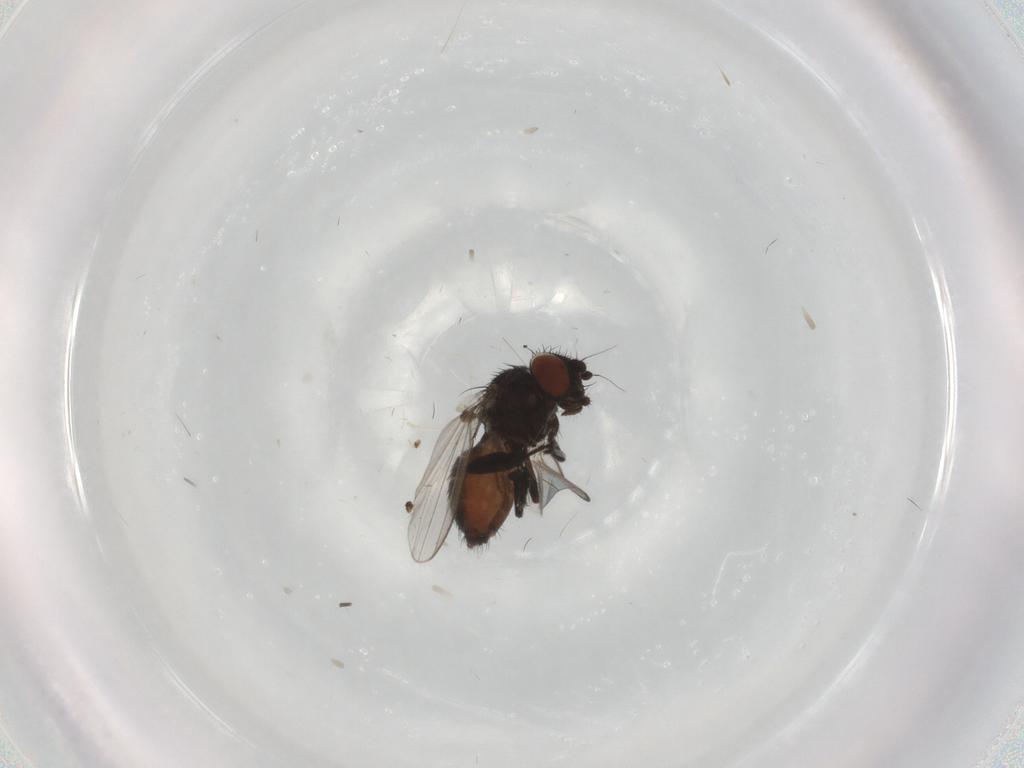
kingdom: Animalia
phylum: Arthropoda
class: Insecta
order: Diptera
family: Milichiidae
